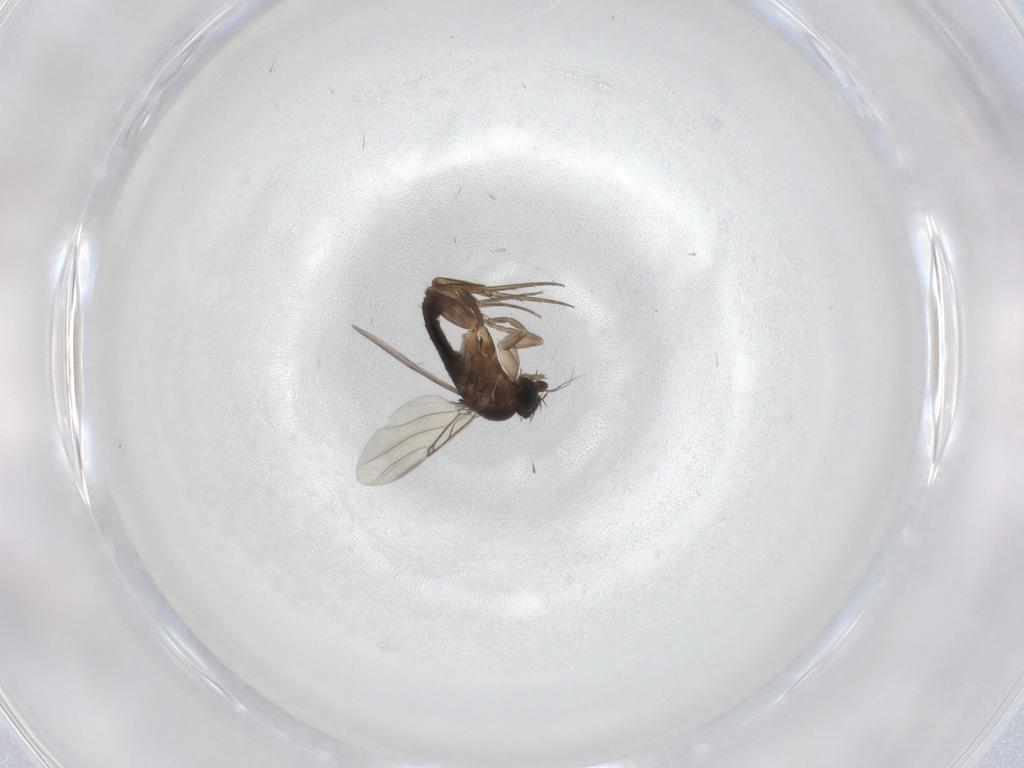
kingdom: Animalia
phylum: Arthropoda
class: Insecta
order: Diptera
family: Phoridae
